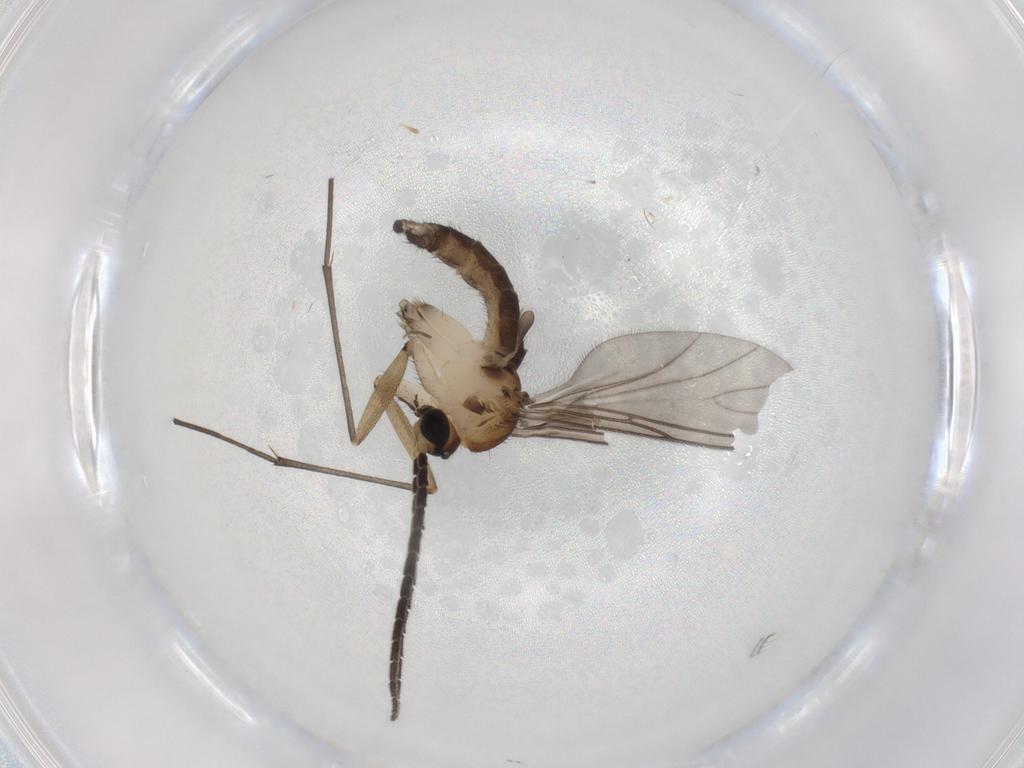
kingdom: Animalia
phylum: Arthropoda
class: Insecta
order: Diptera
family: Sciaridae
